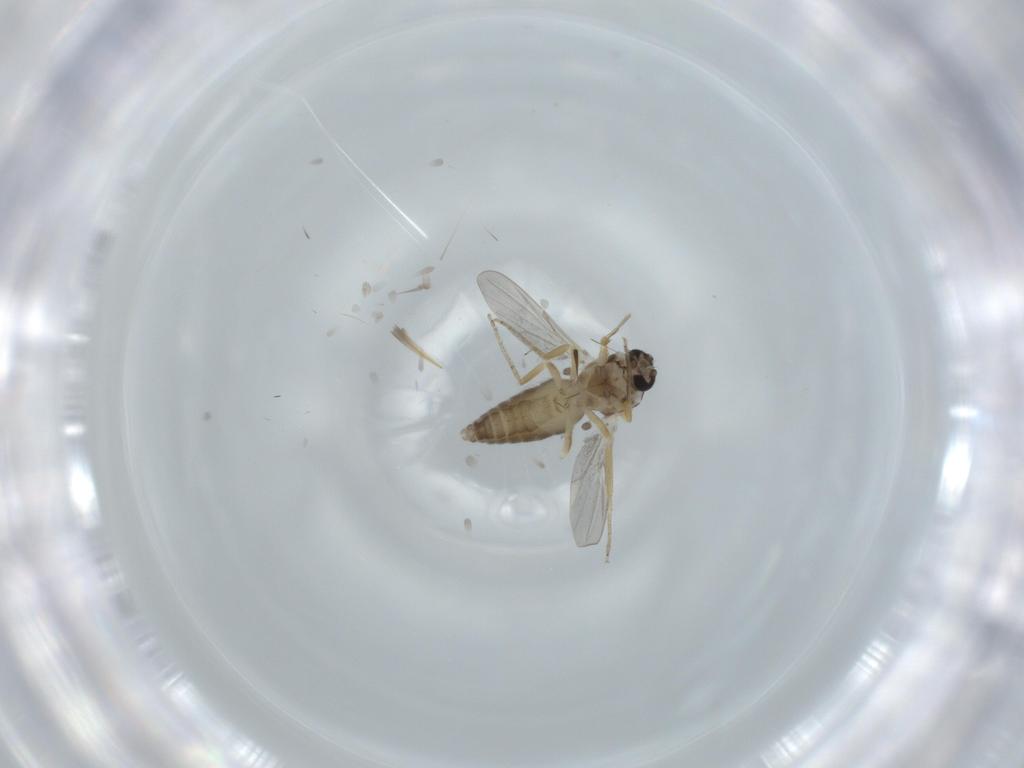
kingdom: Animalia
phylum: Arthropoda
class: Insecta
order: Diptera
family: Ceratopogonidae
